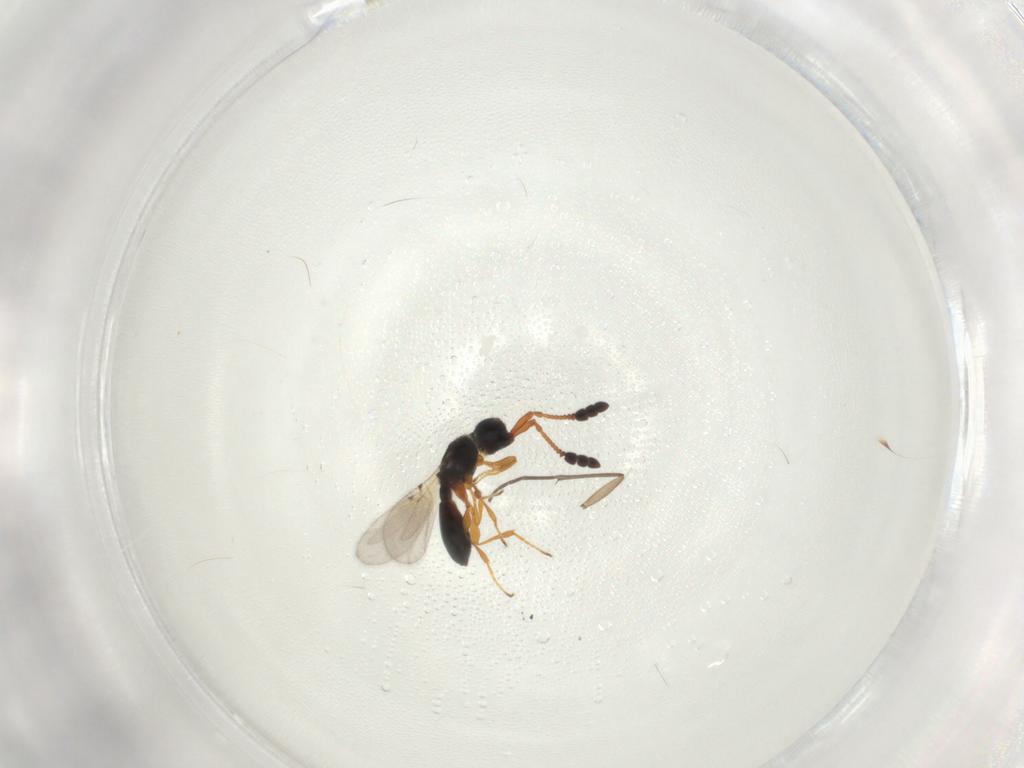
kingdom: Animalia
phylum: Arthropoda
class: Insecta
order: Hymenoptera
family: Diapriidae
